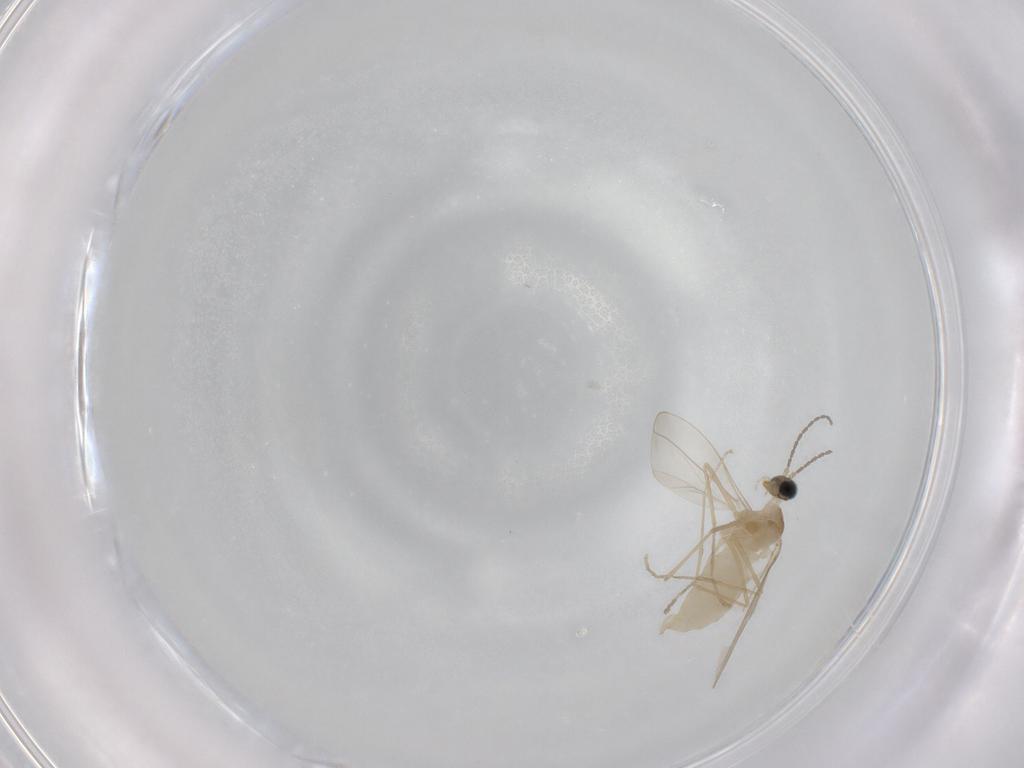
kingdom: Animalia
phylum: Arthropoda
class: Insecta
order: Diptera
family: Cecidomyiidae
